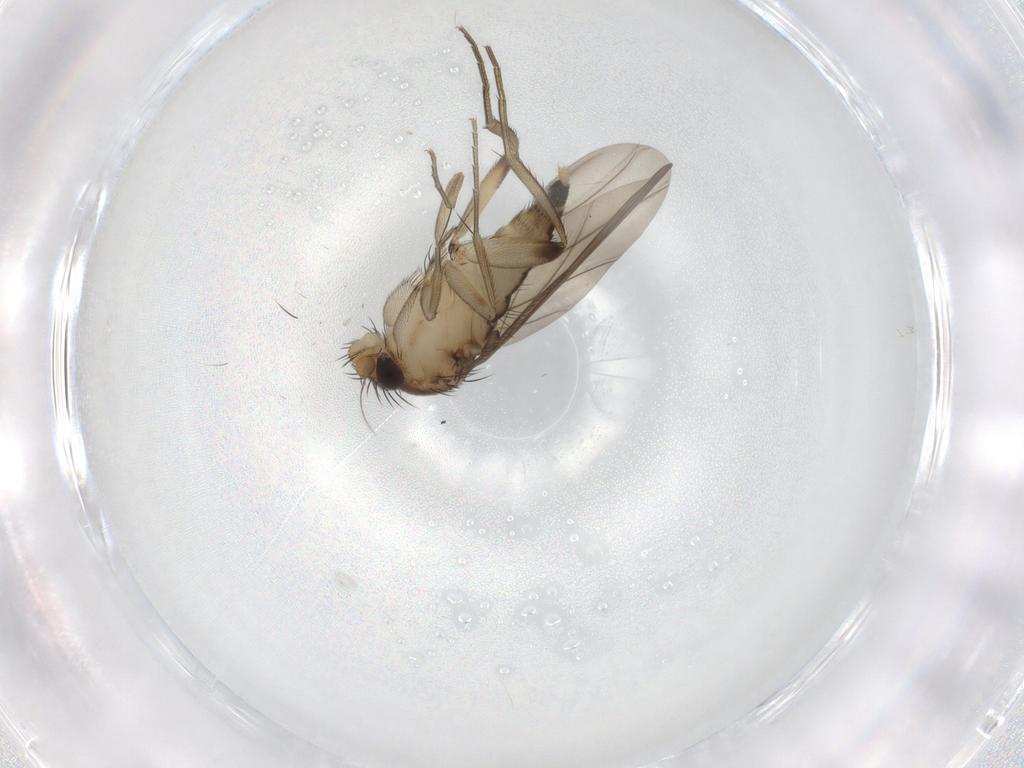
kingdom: Animalia
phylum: Arthropoda
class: Insecta
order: Diptera
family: Phoridae
